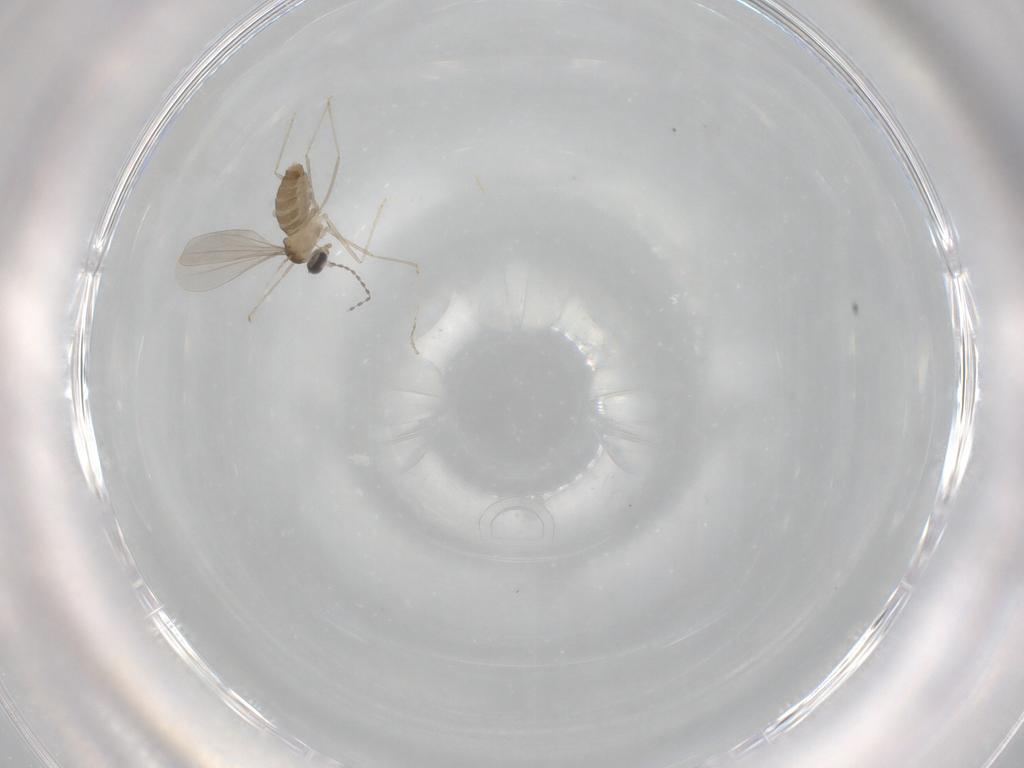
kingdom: Animalia
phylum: Arthropoda
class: Insecta
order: Diptera
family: Cecidomyiidae
